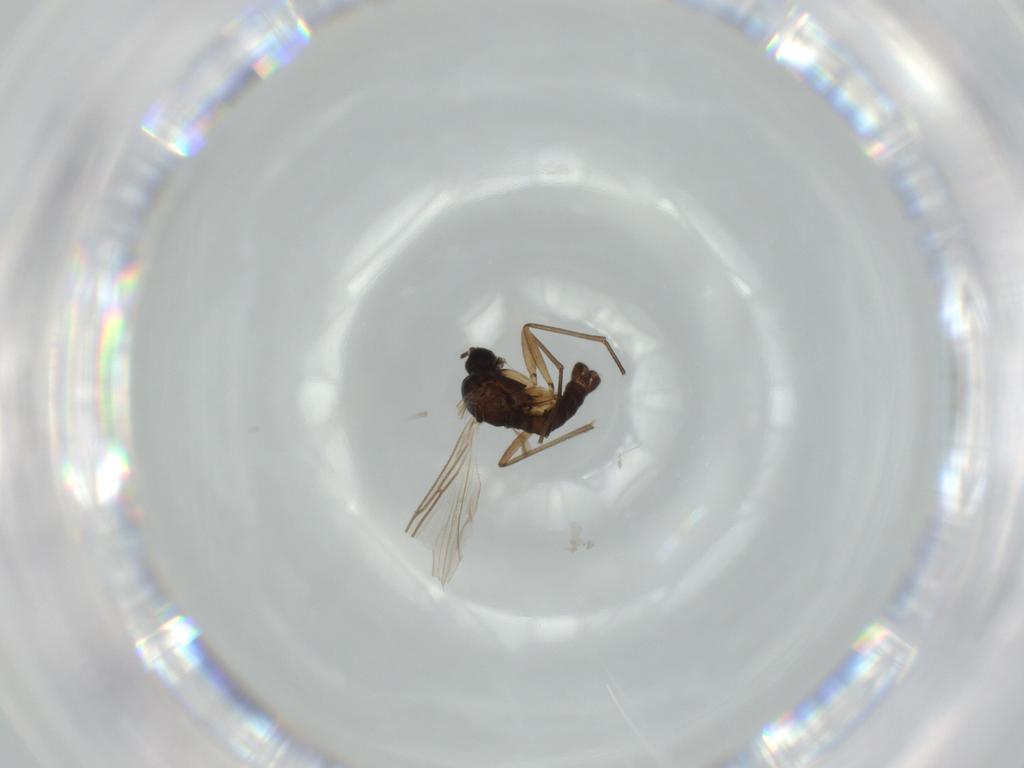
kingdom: Animalia
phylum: Arthropoda
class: Insecta
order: Diptera
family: Sciaridae
